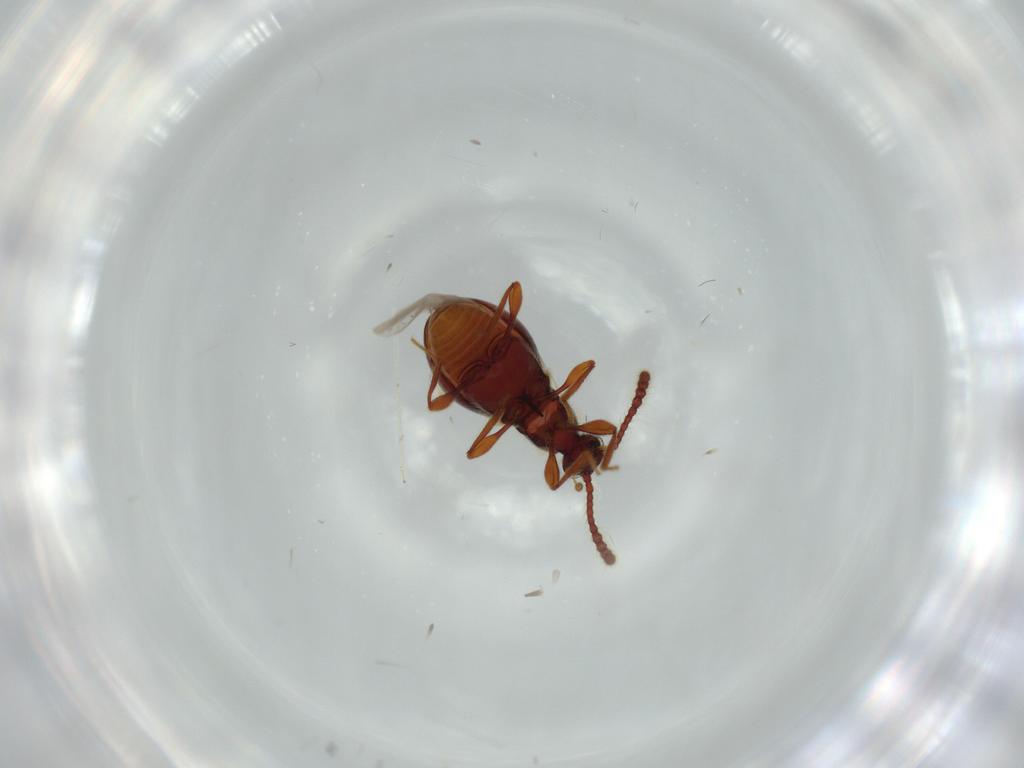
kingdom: Animalia
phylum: Arthropoda
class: Insecta
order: Coleoptera
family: Staphylinidae
